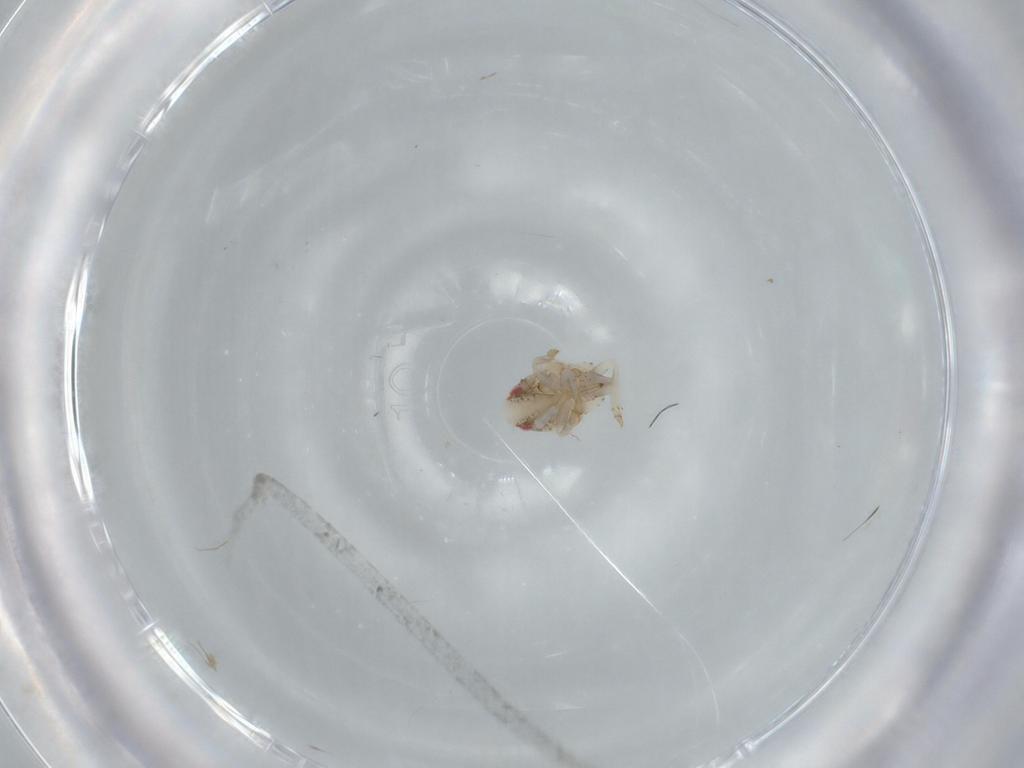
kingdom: Animalia
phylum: Arthropoda
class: Insecta
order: Hemiptera
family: Acanaloniidae
